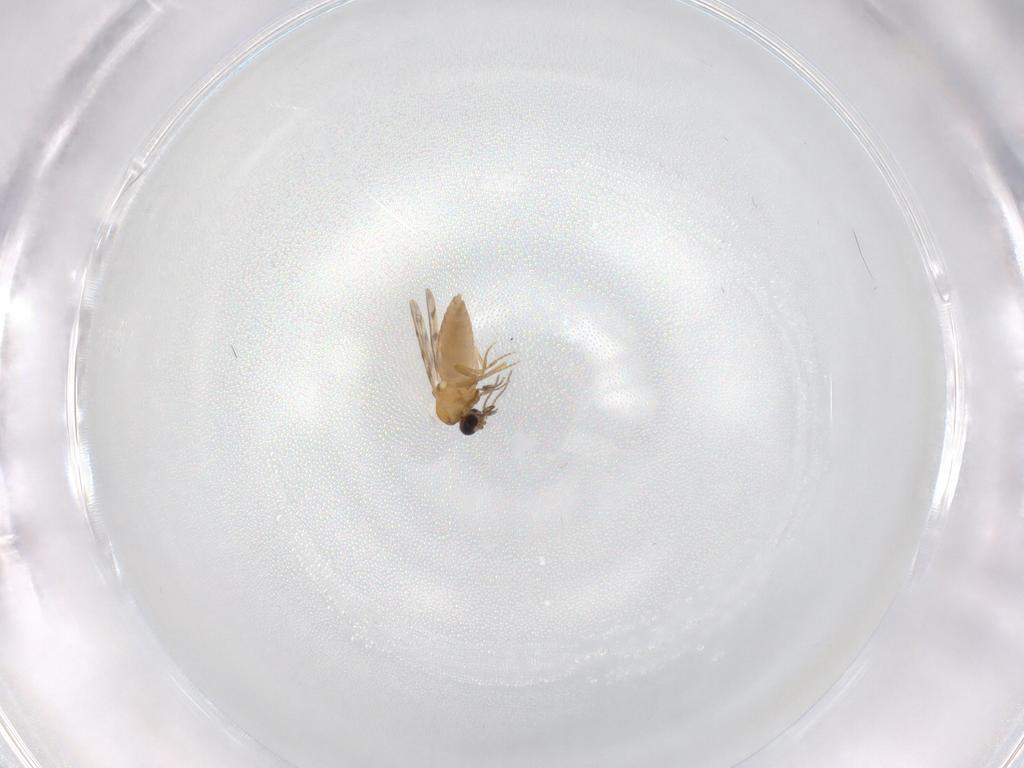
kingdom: Animalia
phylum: Arthropoda
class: Insecta
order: Diptera
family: Ceratopogonidae
